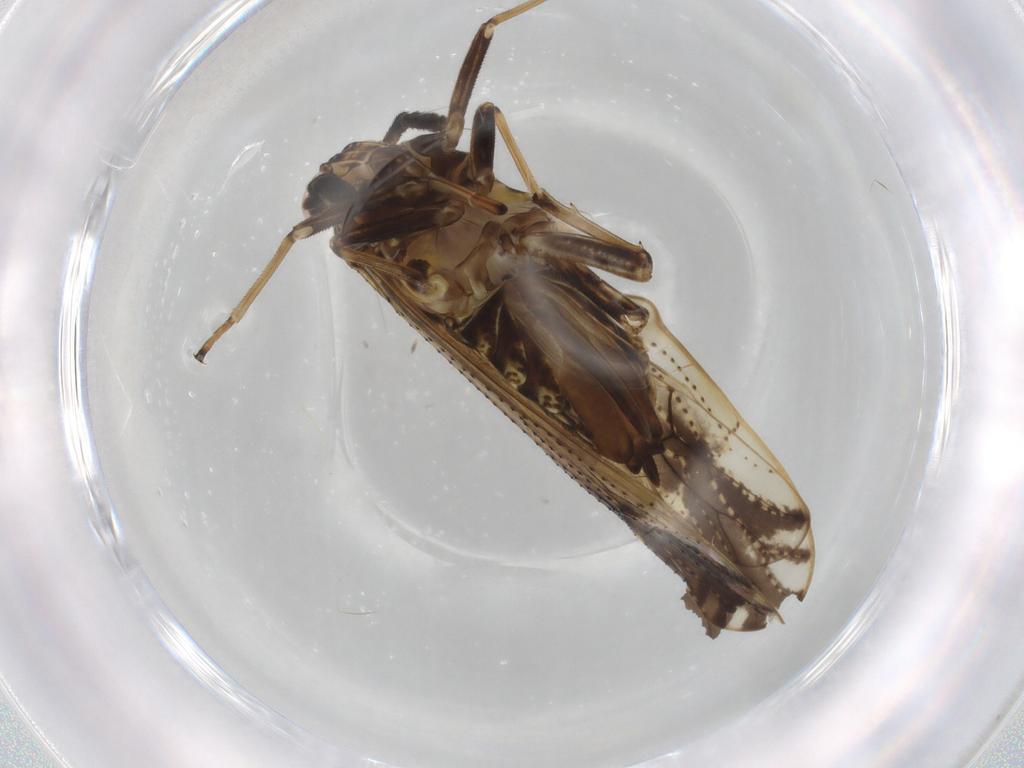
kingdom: Animalia
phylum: Arthropoda
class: Insecta
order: Hemiptera
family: Delphacidae
